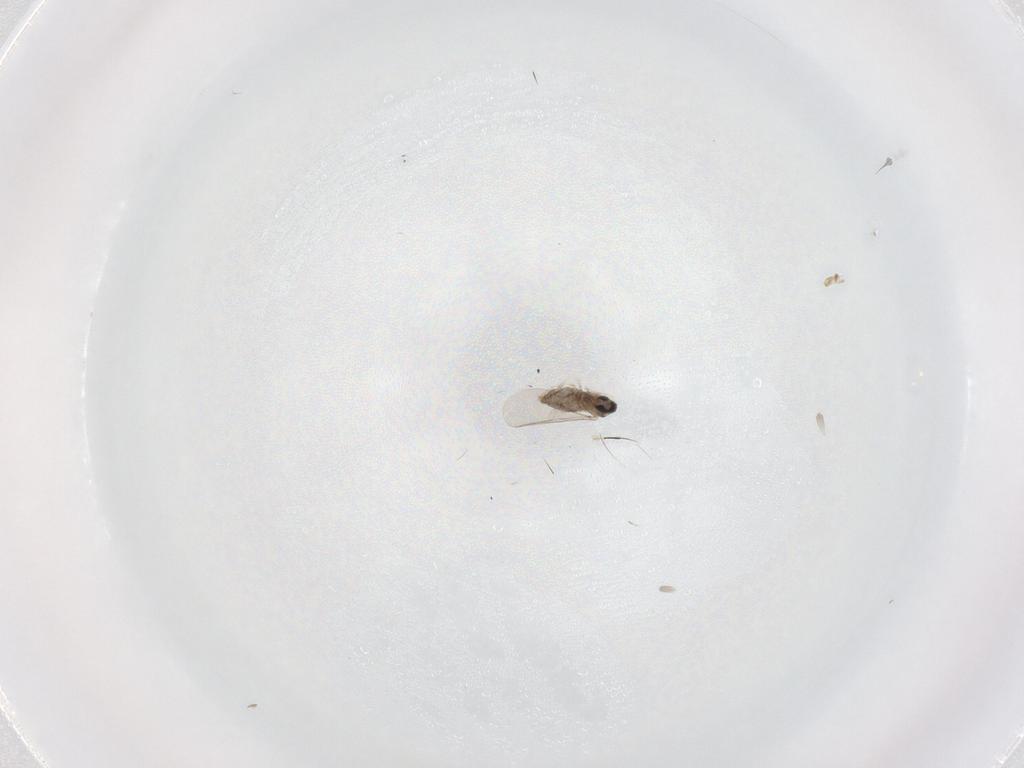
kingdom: Animalia
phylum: Arthropoda
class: Insecta
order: Diptera
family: Cecidomyiidae
